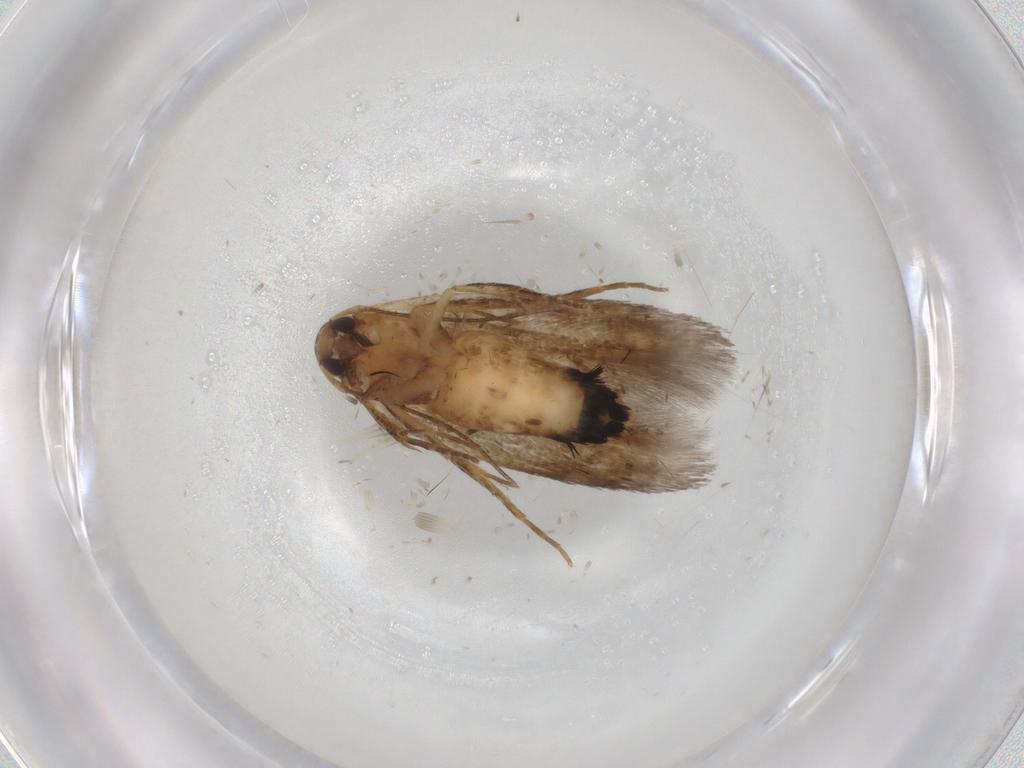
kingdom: Animalia
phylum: Arthropoda
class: Insecta
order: Lepidoptera
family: Cosmopterigidae
